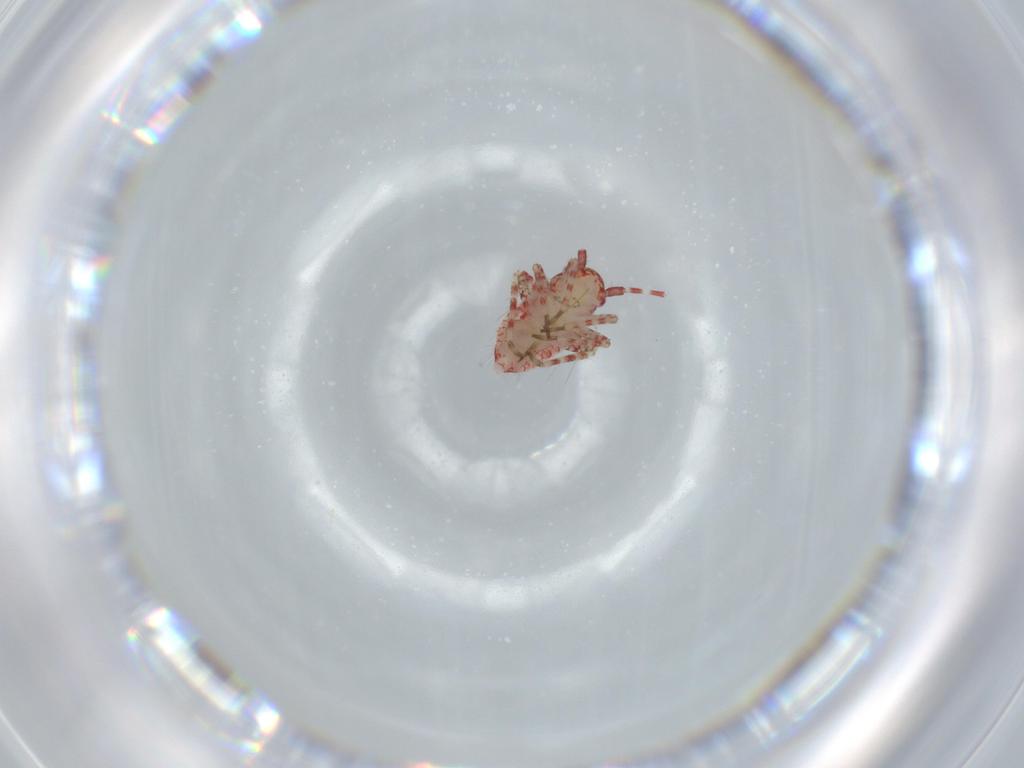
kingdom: Animalia
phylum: Arthropoda
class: Insecta
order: Hemiptera
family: Miridae
